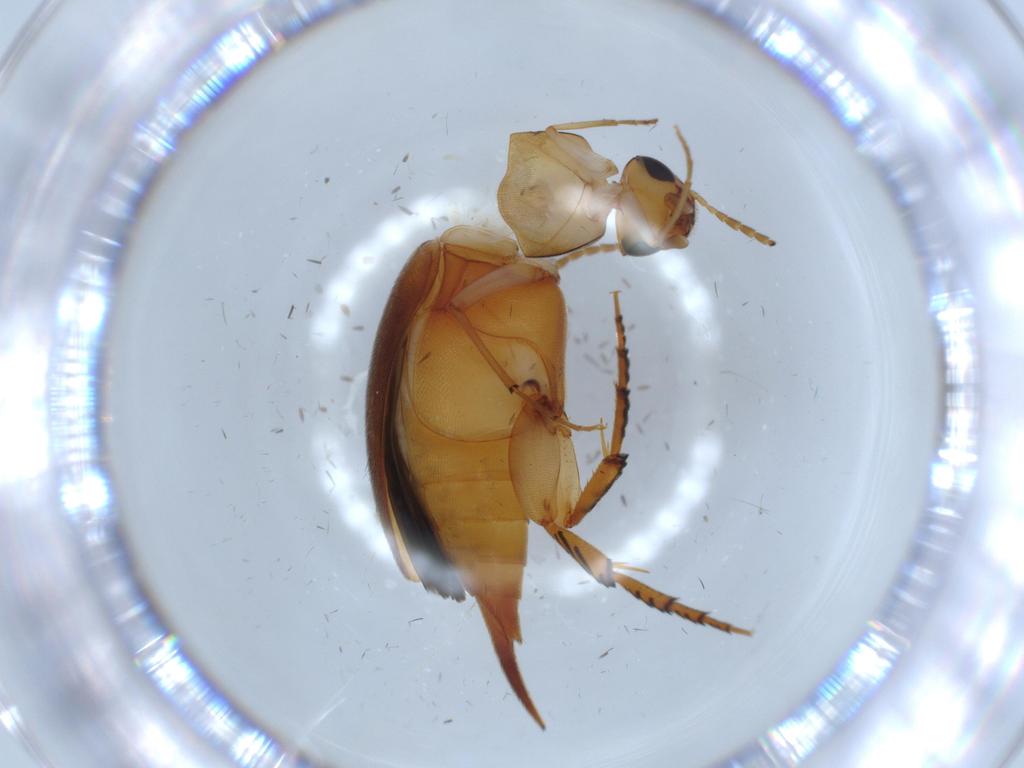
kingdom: Animalia
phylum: Arthropoda
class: Insecta
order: Coleoptera
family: Mordellidae
